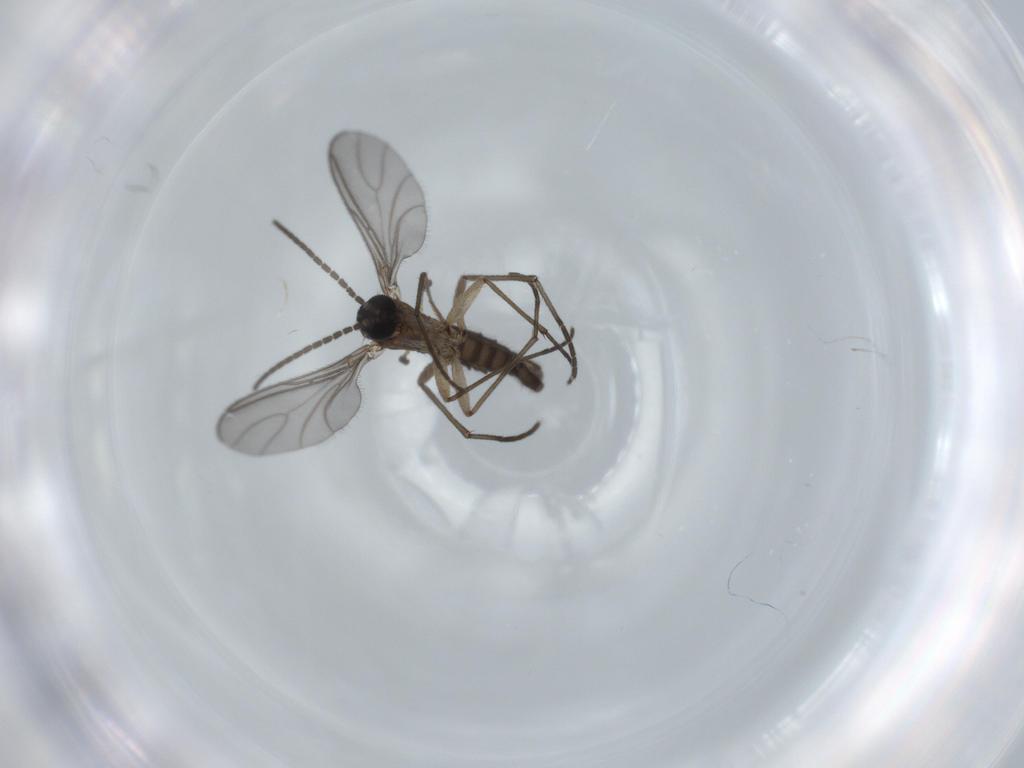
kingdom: Animalia
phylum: Arthropoda
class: Insecta
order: Diptera
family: Sciaridae
